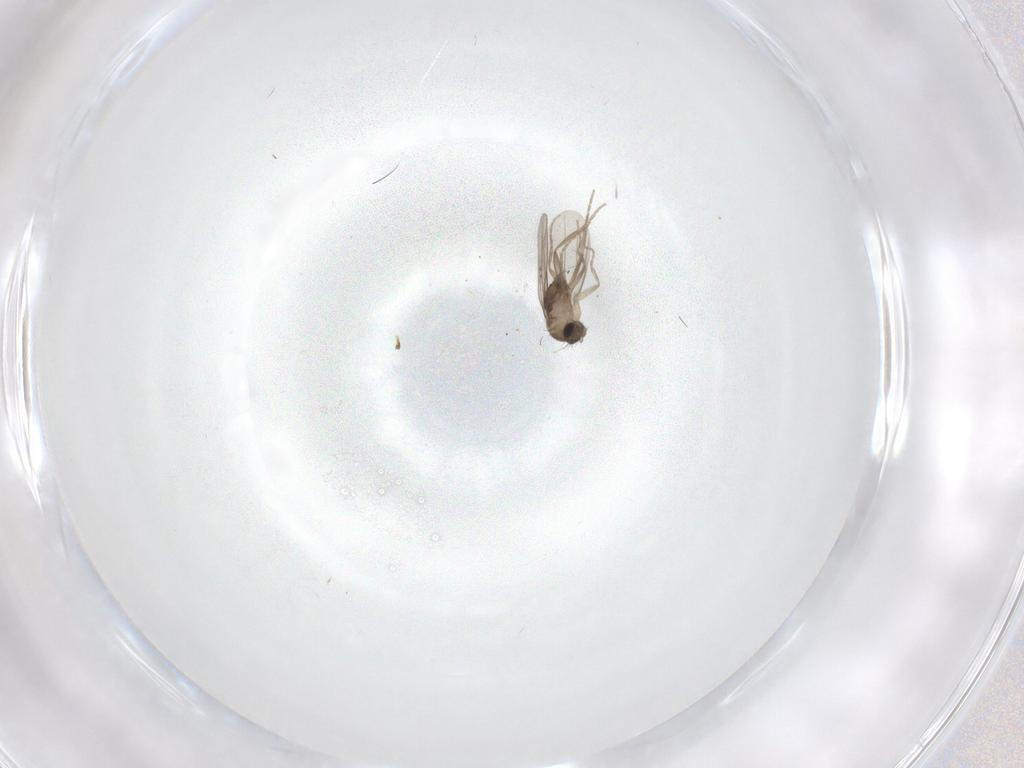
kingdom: Animalia
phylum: Arthropoda
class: Insecta
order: Diptera
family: Phoridae
